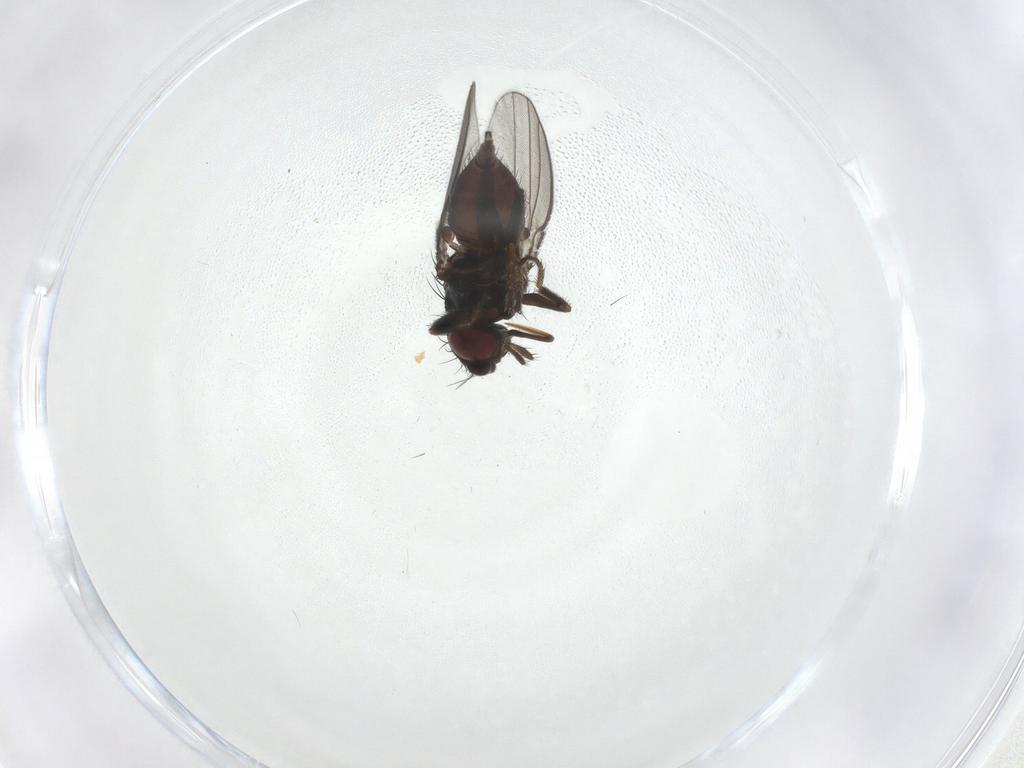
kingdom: Animalia
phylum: Arthropoda
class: Insecta
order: Diptera
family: Milichiidae
